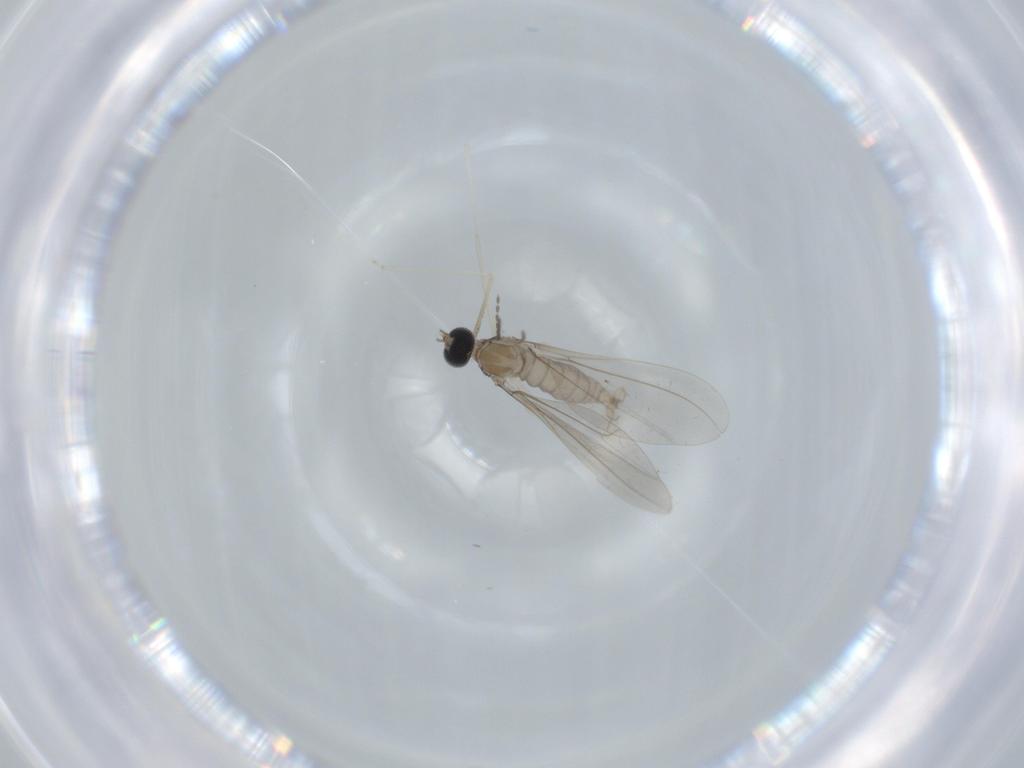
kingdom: Animalia
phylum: Arthropoda
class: Insecta
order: Diptera
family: Cecidomyiidae
